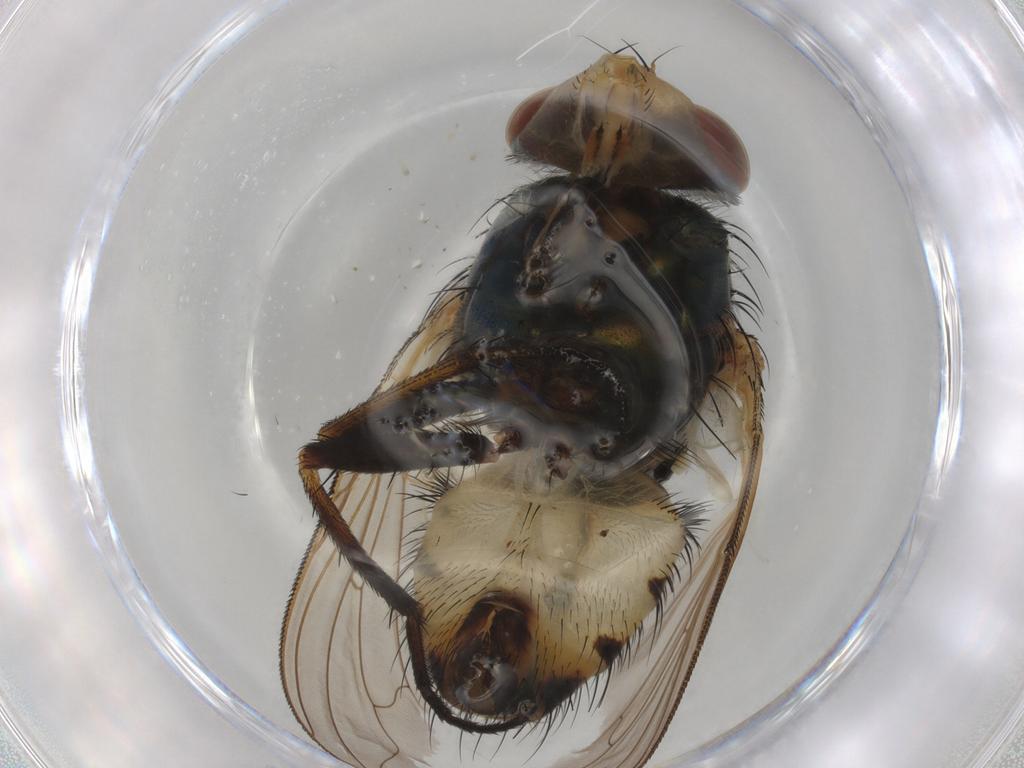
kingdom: Animalia
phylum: Arthropoda
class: Insecta
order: Diptera
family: Calliphoridae
